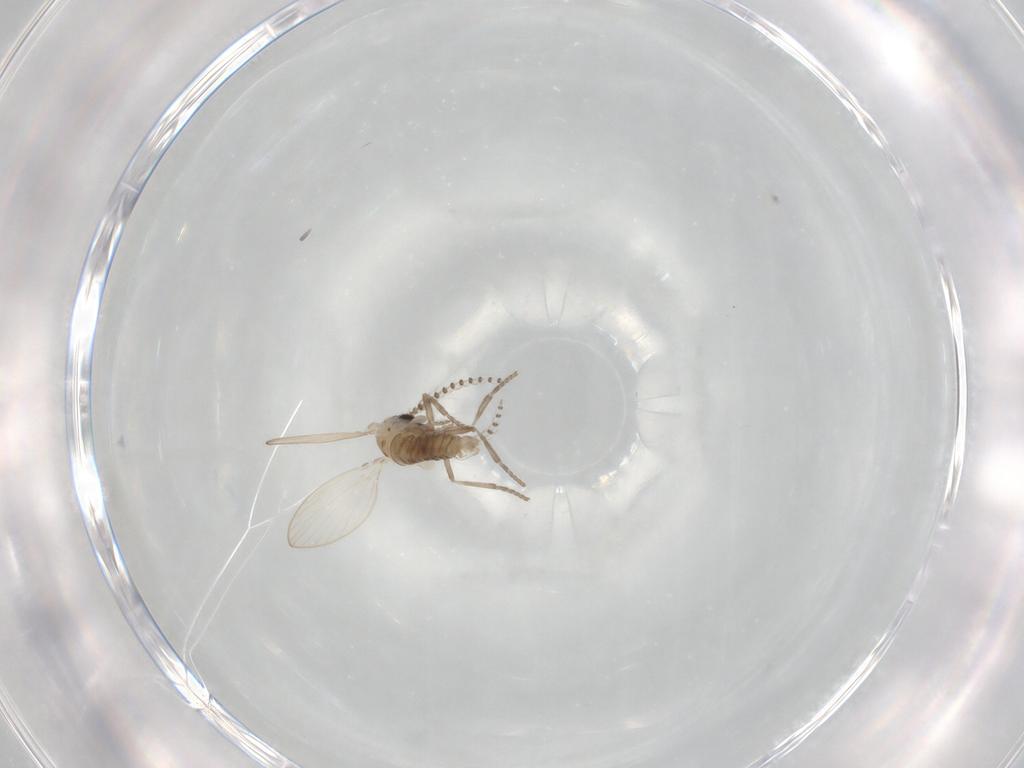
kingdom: Animalia
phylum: Arthropoda
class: Insecta
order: Diptera
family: Psychodidae
